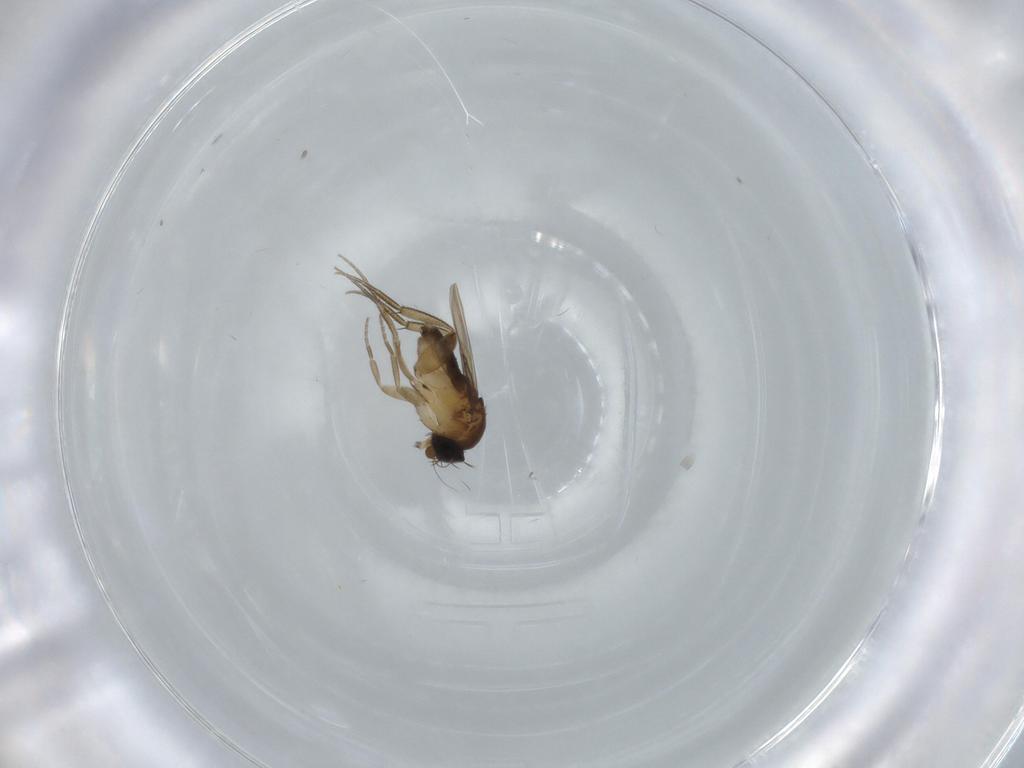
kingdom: Animalia
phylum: Arthropoda
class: Insecta
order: Diptera
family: Phoridae
